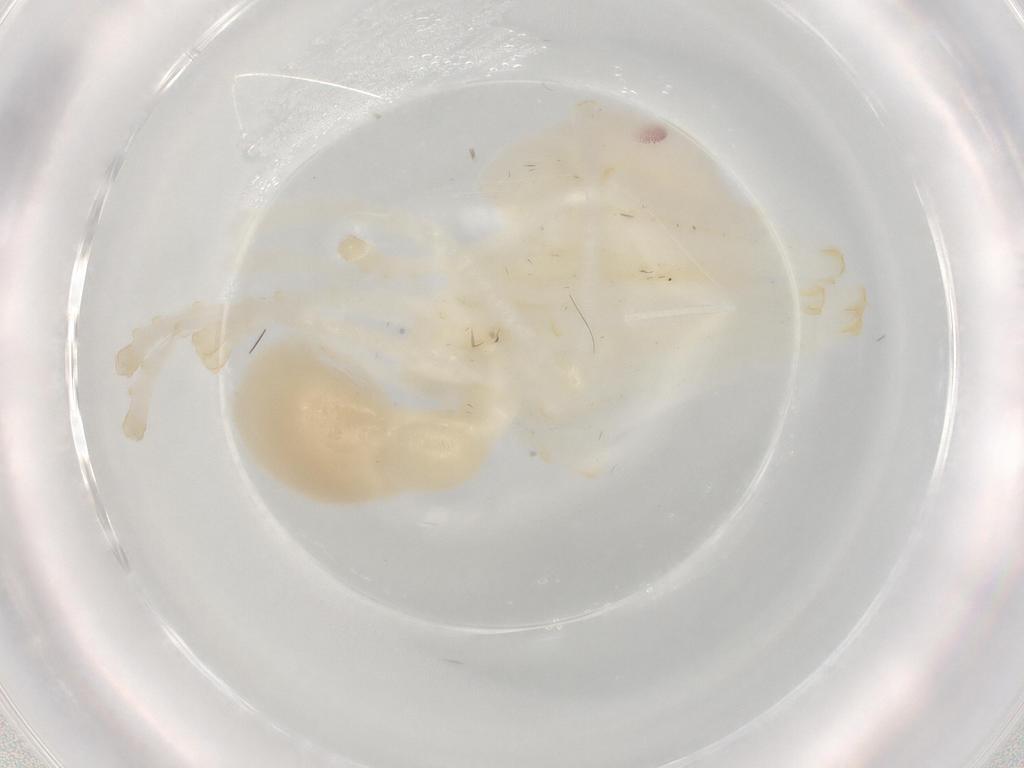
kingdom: Animalia
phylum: Arthropoda
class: Insecta
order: Hymenoptera
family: Formicidae
